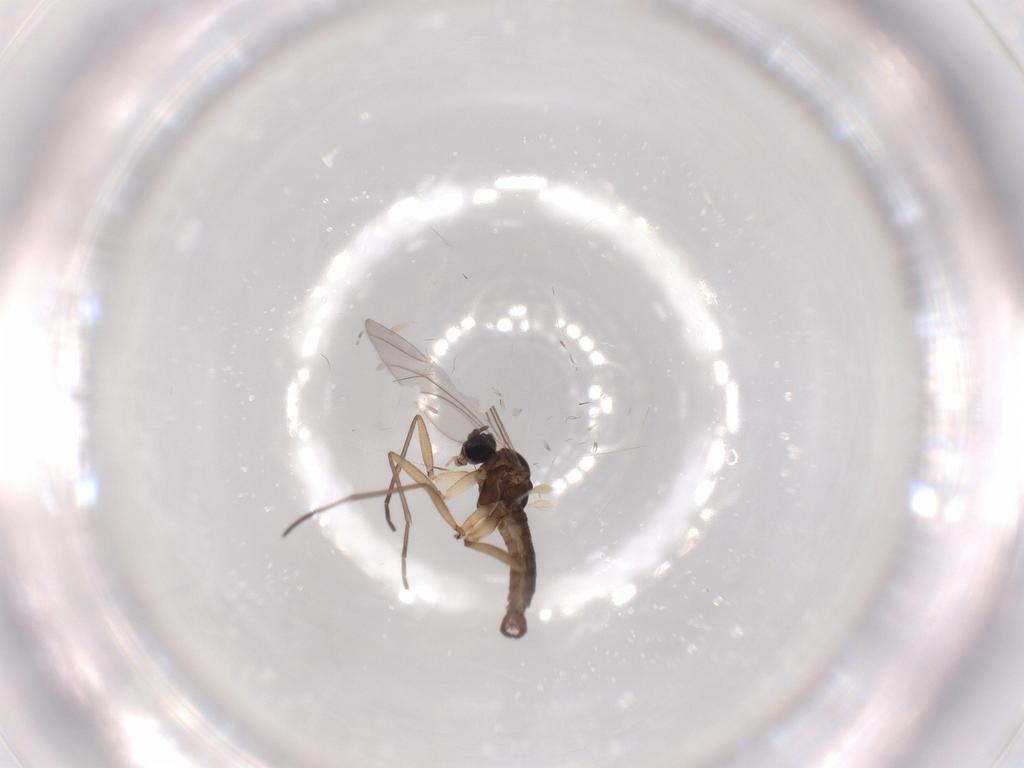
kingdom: Animalia
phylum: Arthropoda
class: Insecta
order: Diptera
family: Sciaridae
